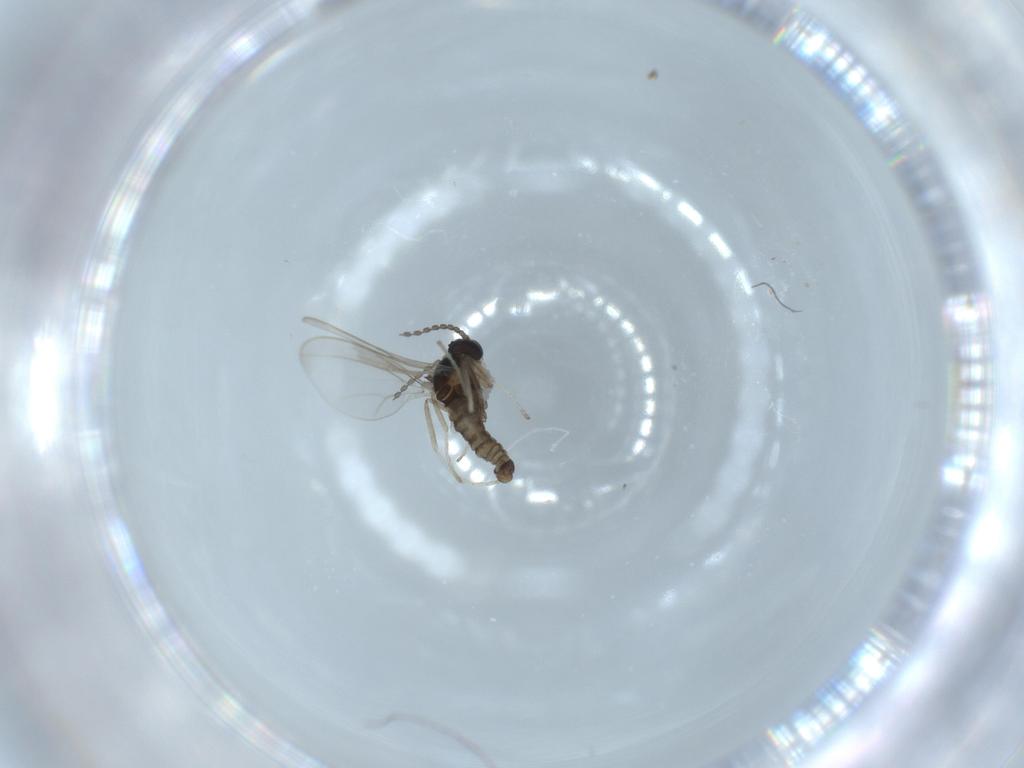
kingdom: Animalia
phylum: Arthropoda
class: Insecta
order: Diptera
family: Cecidomyiidae
